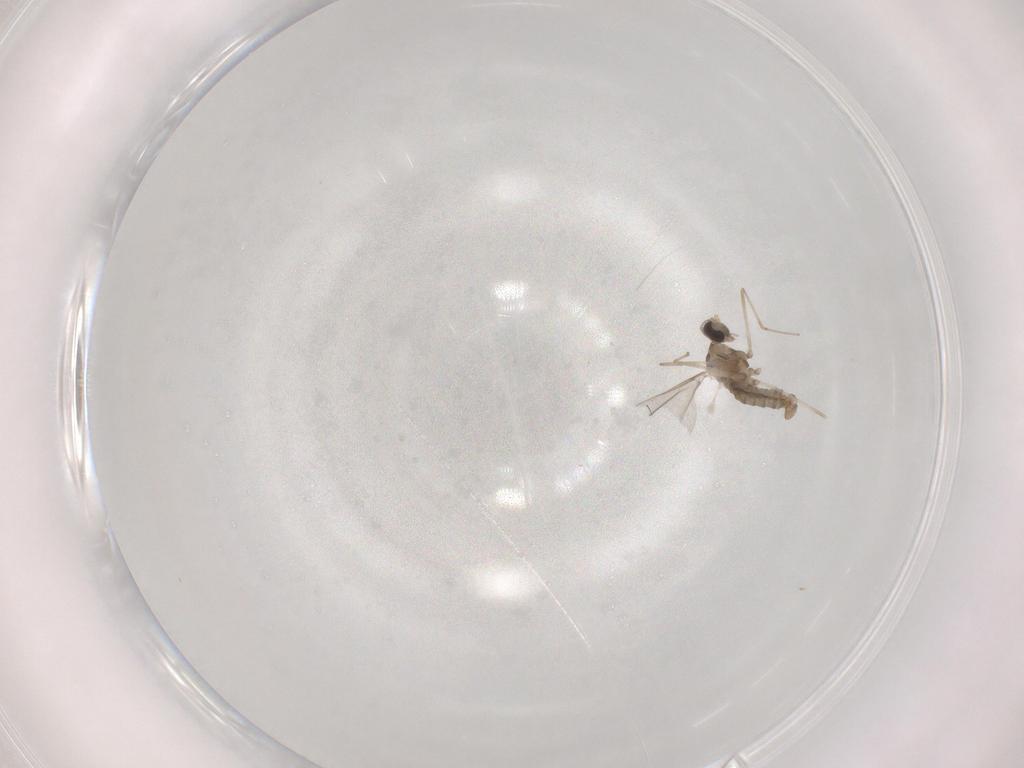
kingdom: Animalia
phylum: Arthropoda
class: Insecta
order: Diptera
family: Cecidomyiidae
